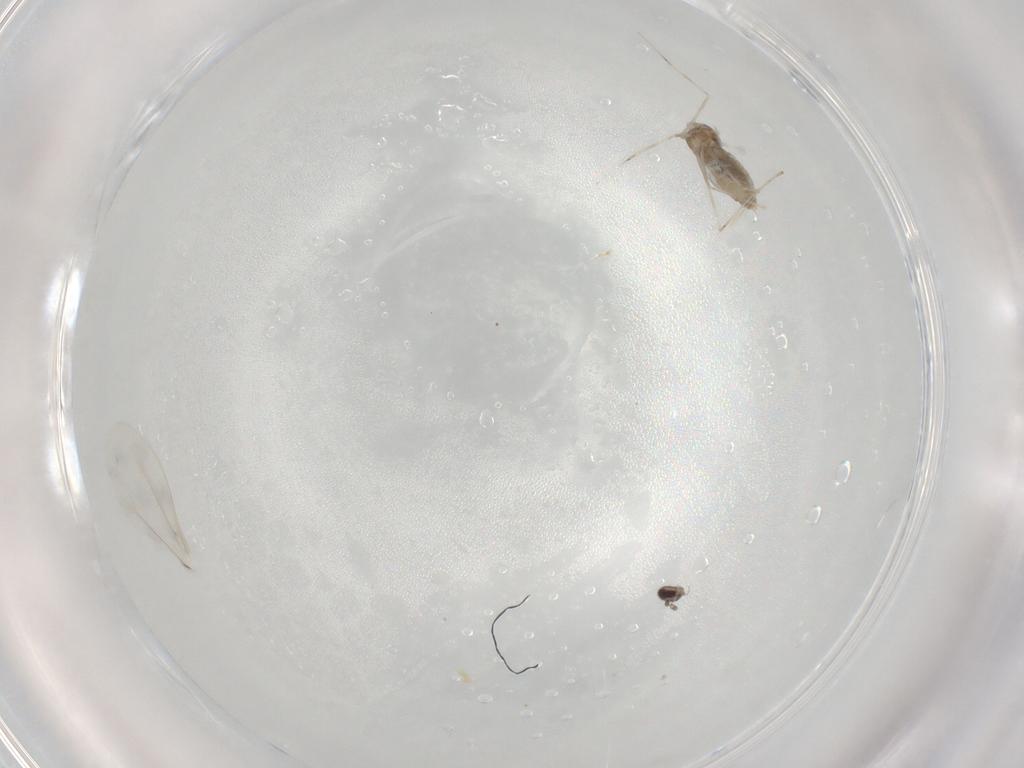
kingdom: Animalia
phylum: Arthropoda
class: Insecta
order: Diptera
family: Cecidomyiidae
